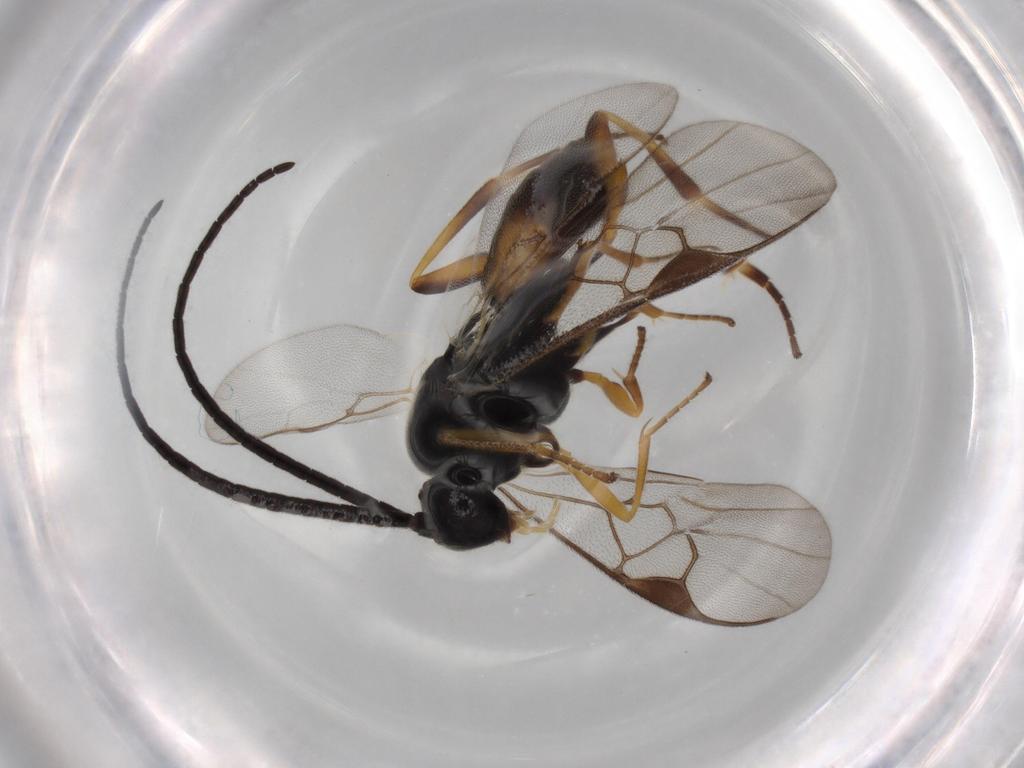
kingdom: Animalia
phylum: Arthropoda
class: Insecta
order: Hymenoptera
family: Braconidae
